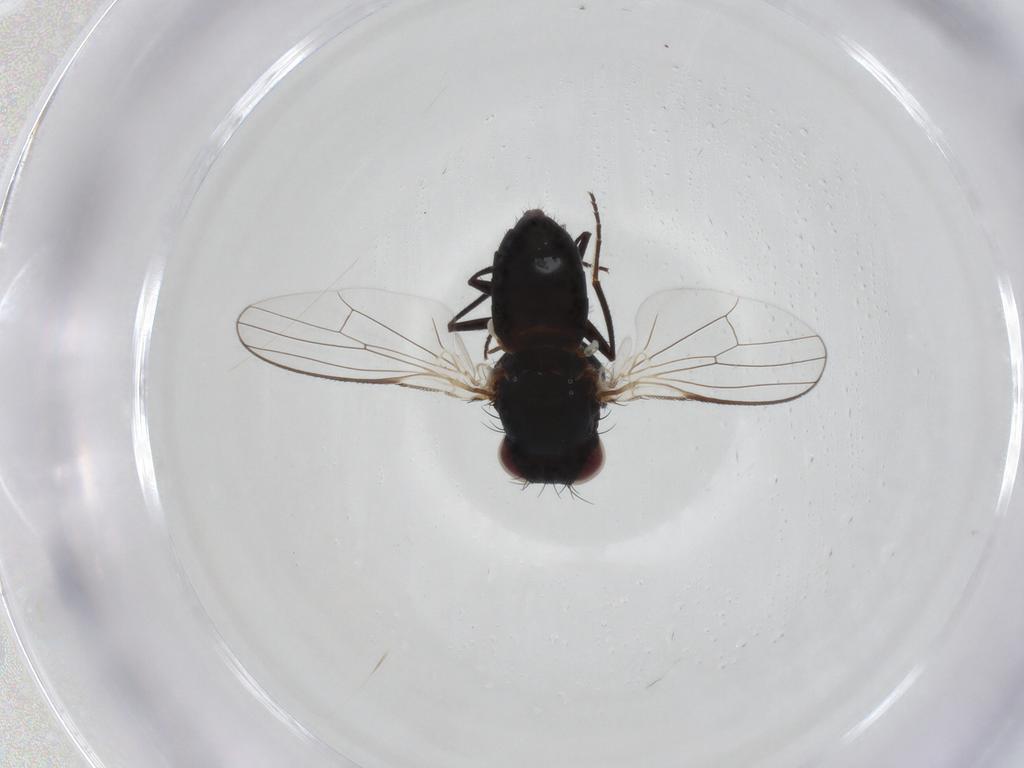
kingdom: Animalia
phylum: Arthropoda
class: Insecta
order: Diptera
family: Carnidae
